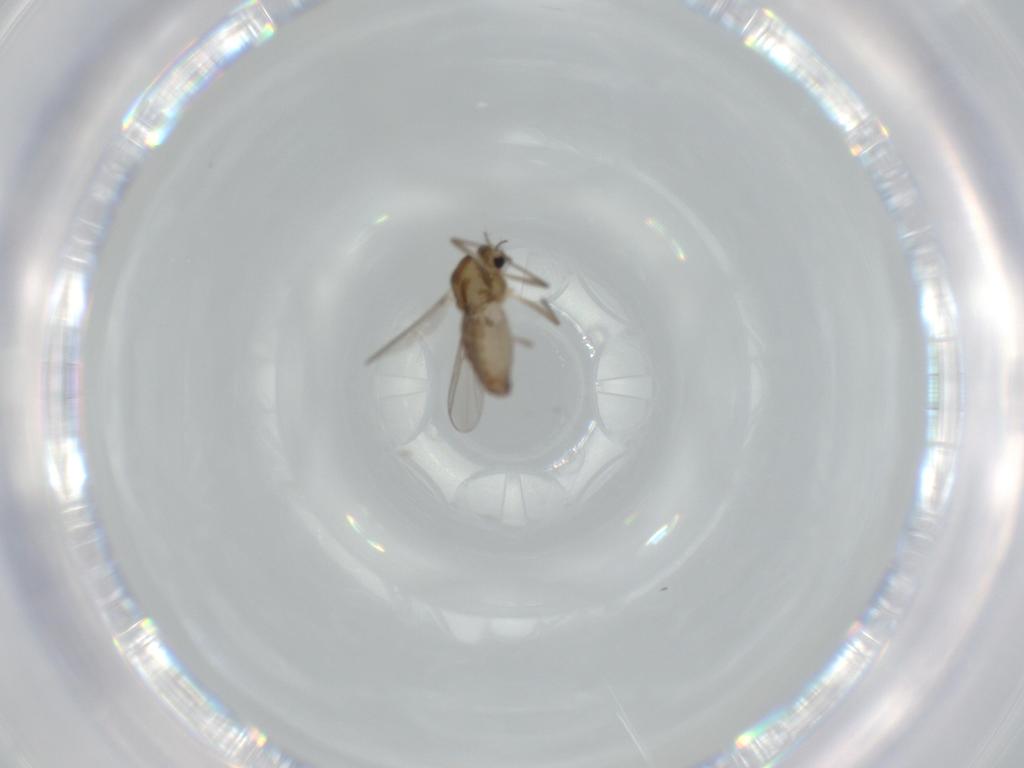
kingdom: Animalia
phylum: Arthropoda
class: Insecta
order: Diptera
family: Chironomidae
